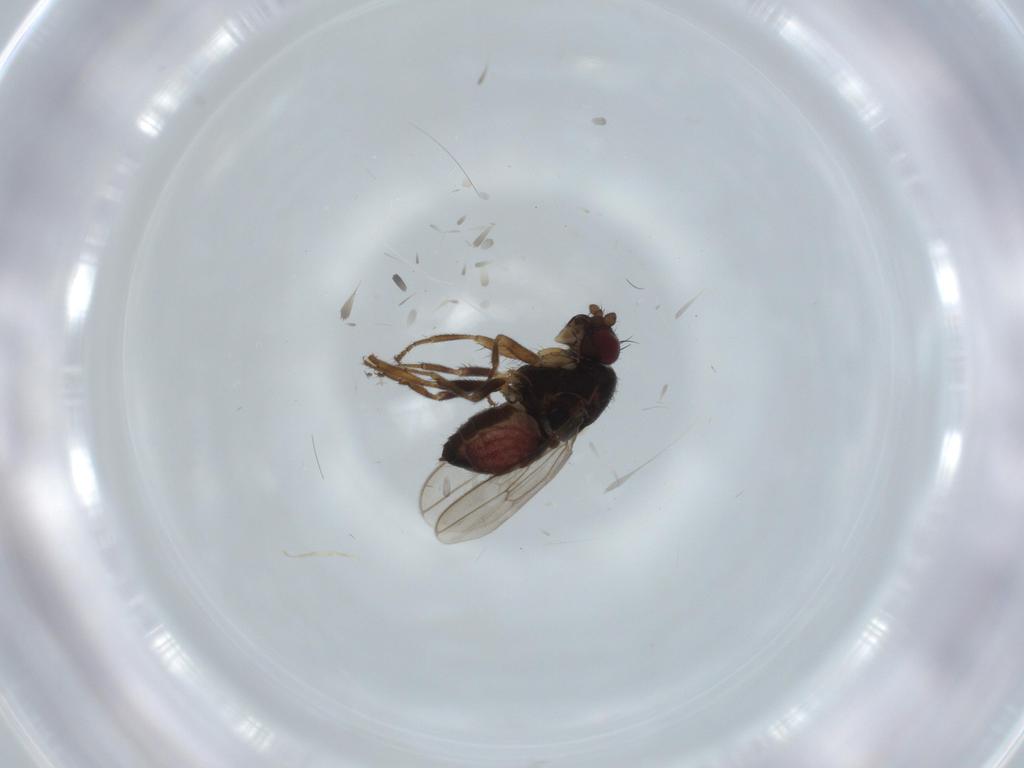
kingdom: Animalia
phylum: Arthropoda
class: Insecta
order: Diptera
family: Sphaeroceridae
